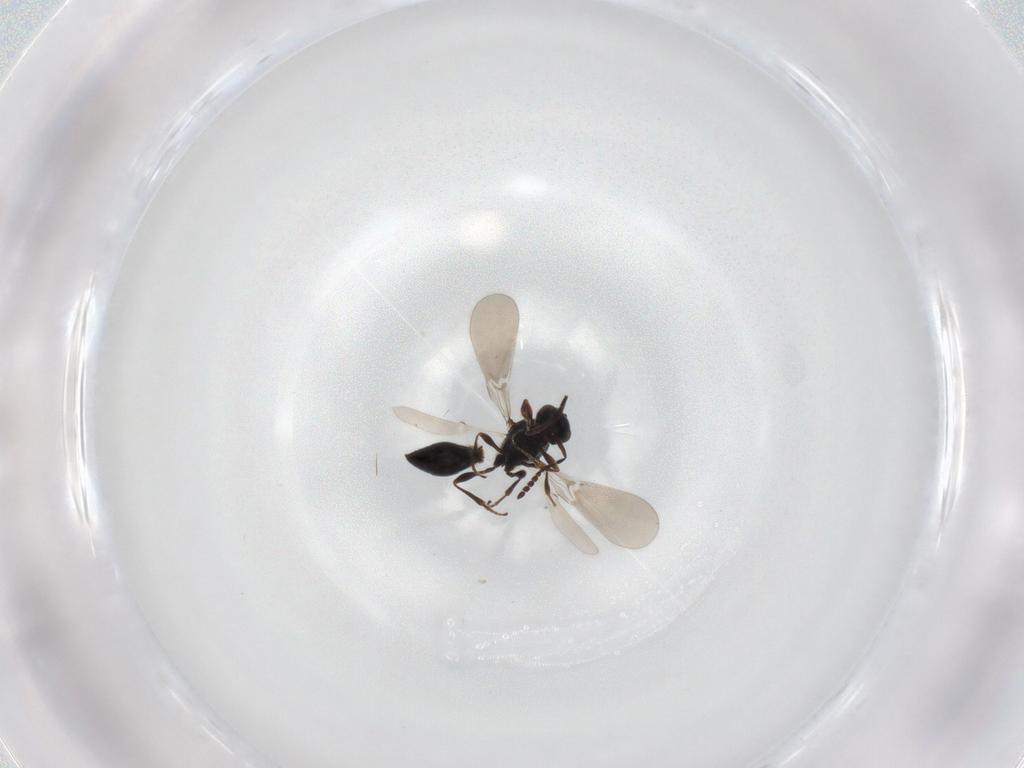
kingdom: Animalia
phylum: Arthropoda
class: Insecta
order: Hymenoptera
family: Platygastridae
